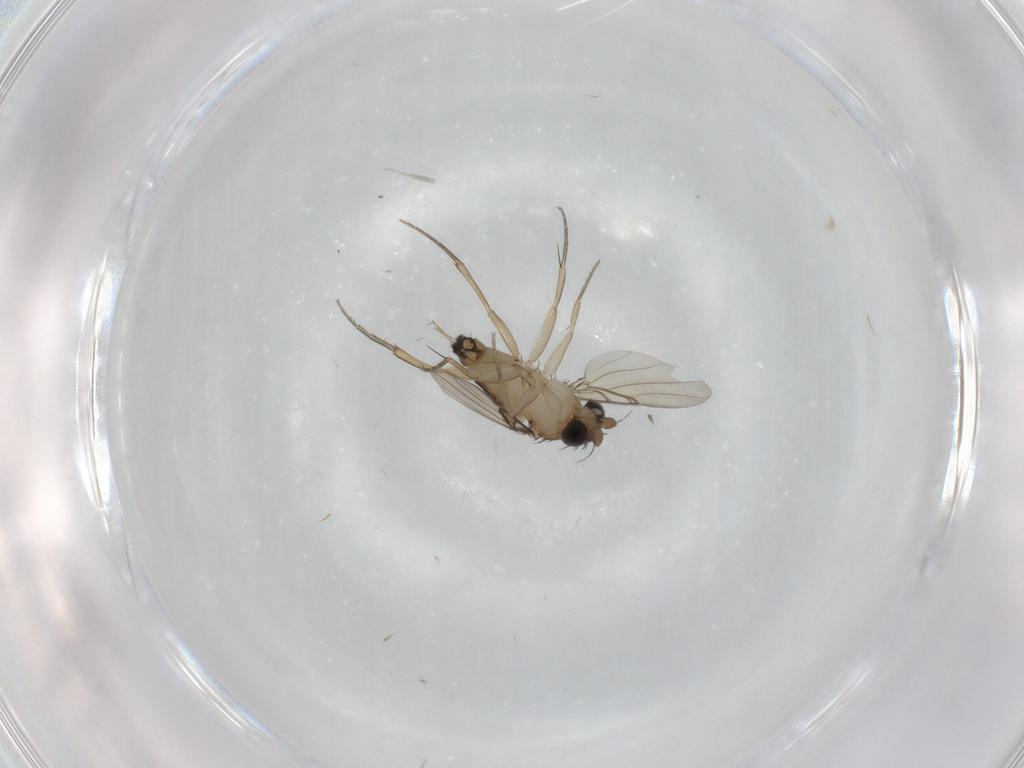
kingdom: Animalia
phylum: Arthropoda
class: Insecta
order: Diptera
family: Phoridae
